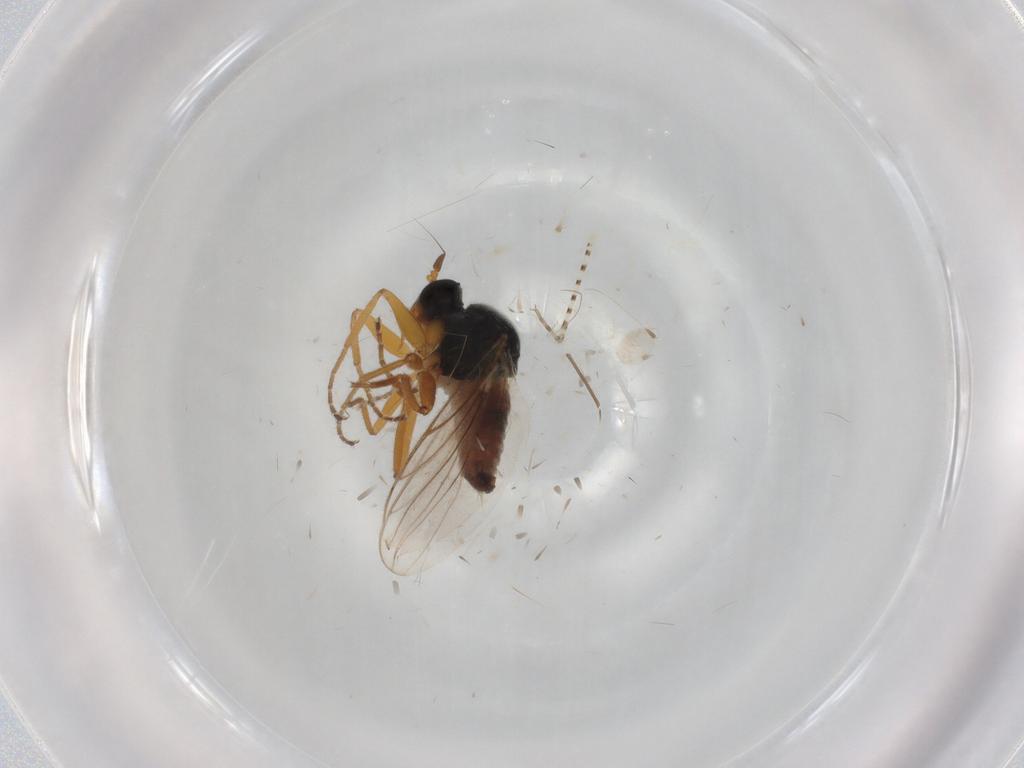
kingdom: Animalia
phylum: Arthropoda
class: Insecta
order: Diptera
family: Hybotidae
